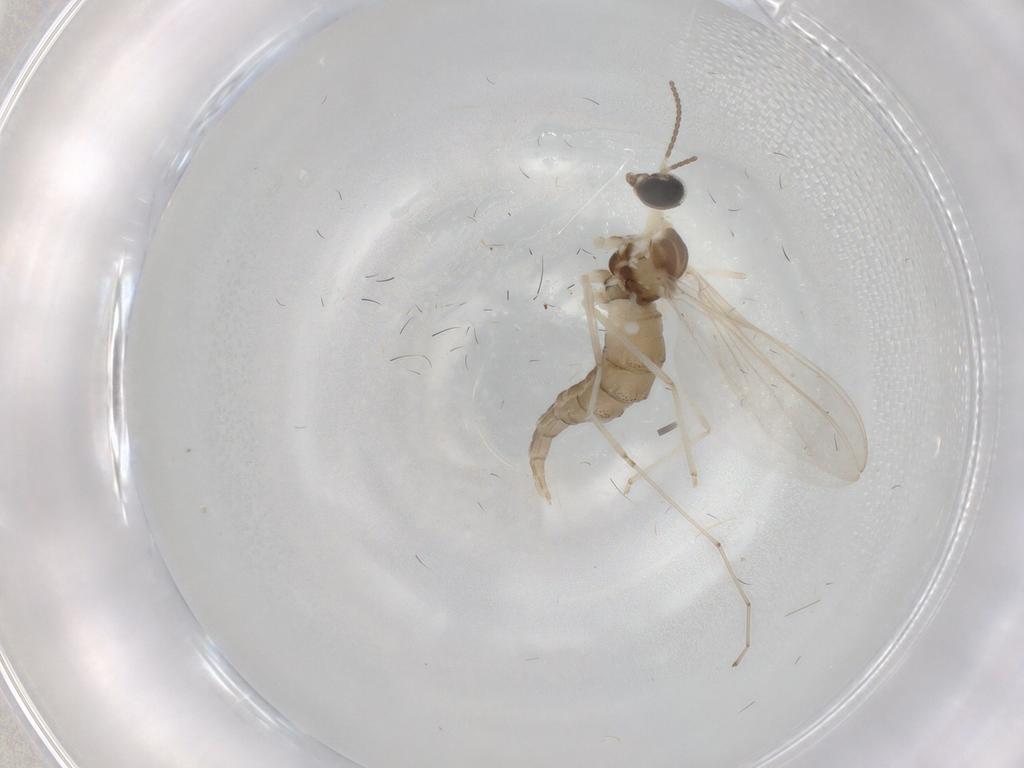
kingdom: Animalia
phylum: Arthropoda
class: Insecta
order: Diptera
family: Cecidomyiidae
